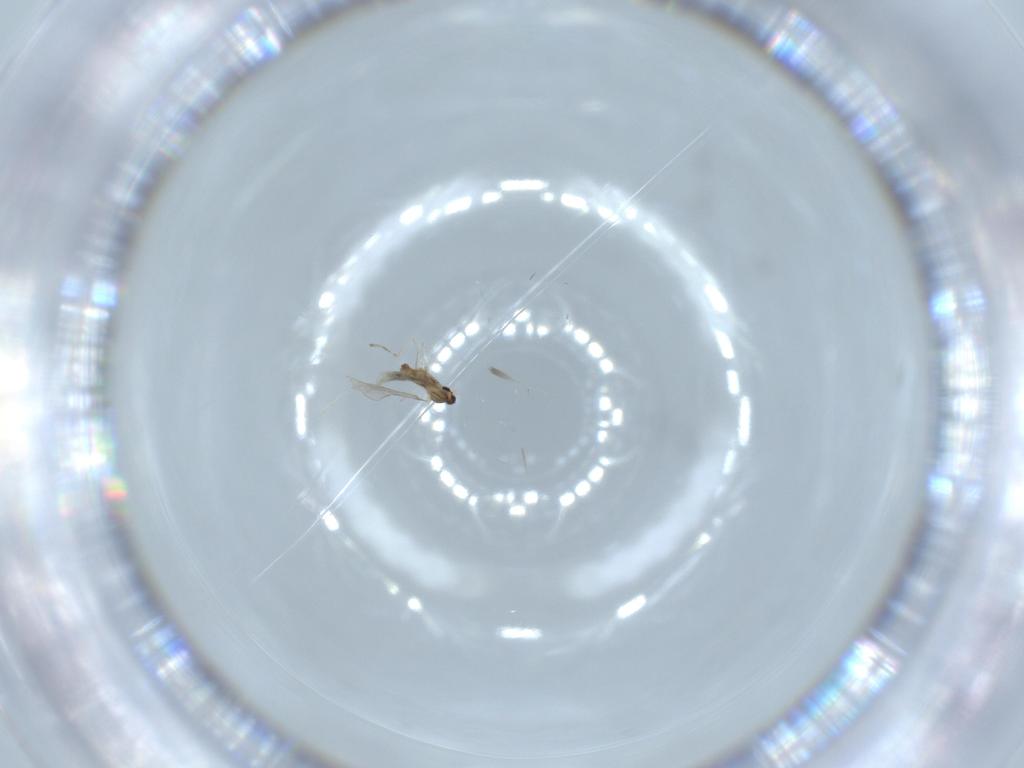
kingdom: Animalia
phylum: Arthropoda
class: Insecta
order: Diptera
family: Cecidomyiidae
